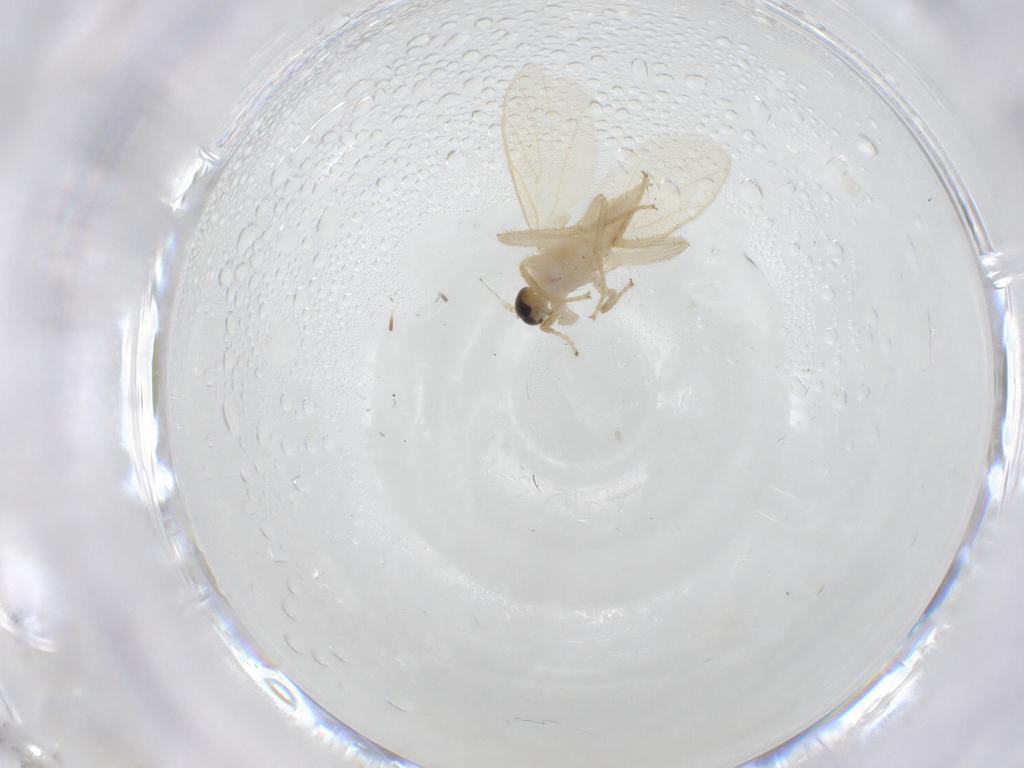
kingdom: Animalia
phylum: Arthropoda
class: Insecta
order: Diptera
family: Hybotidae
